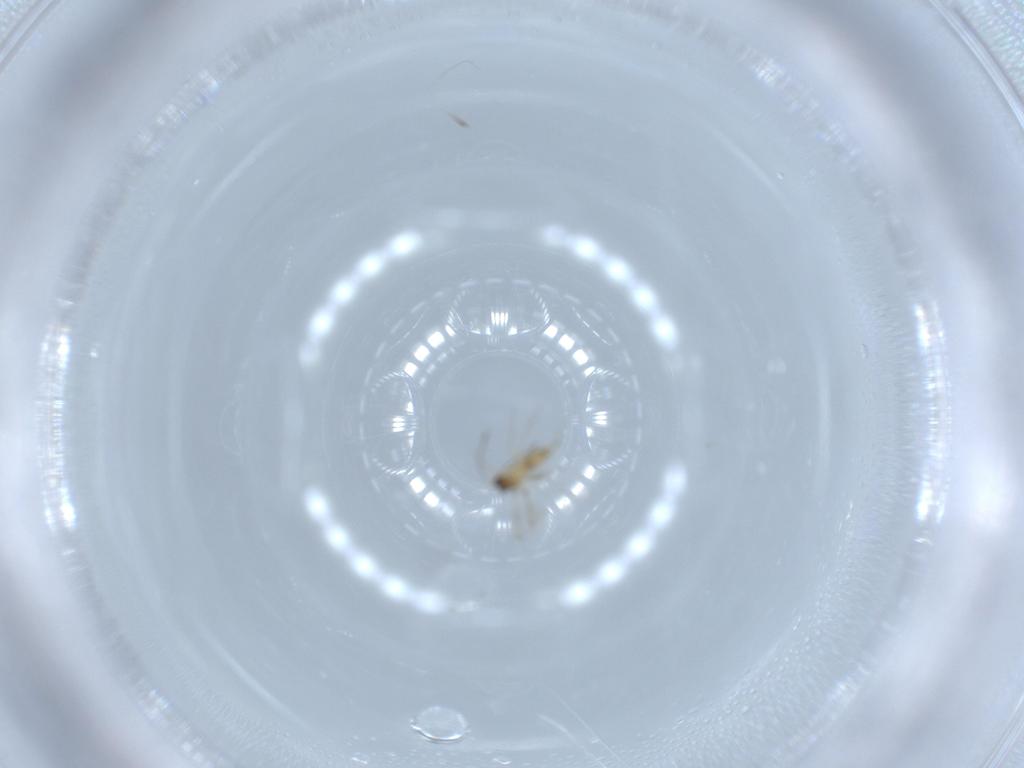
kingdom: Animalia
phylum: Arthropoda
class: Insecta
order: Hymenoptera
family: Mymaridae
